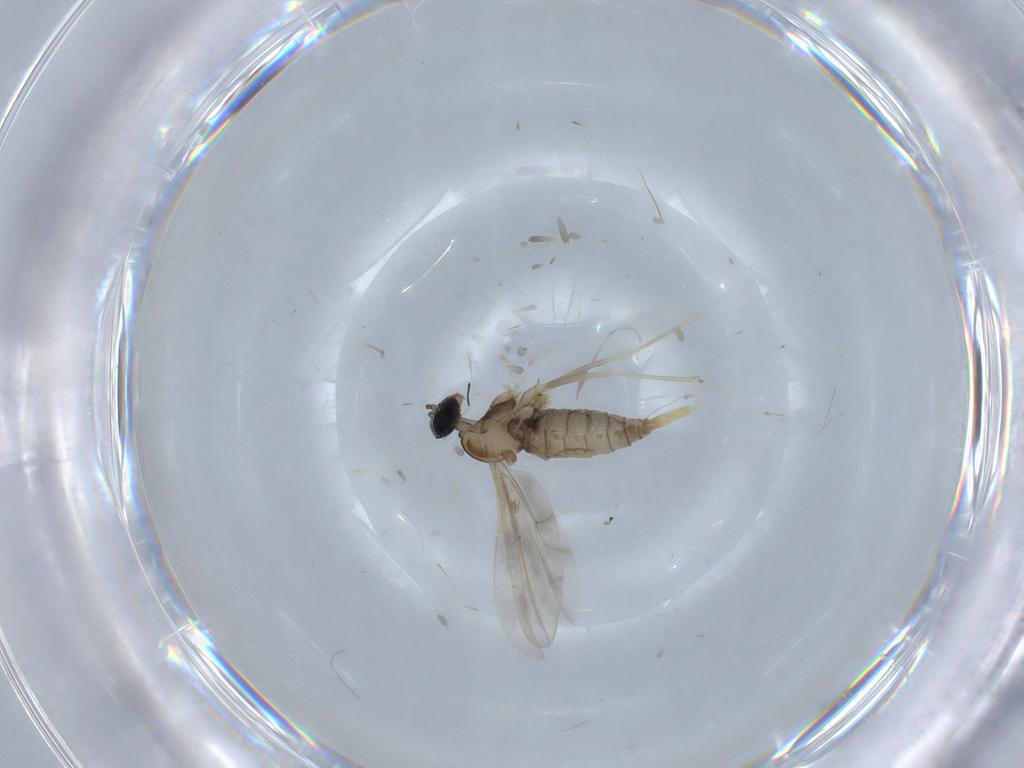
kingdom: Animalia
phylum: Arthropoda
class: Insecta
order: Diptera
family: Cecidomyiidae
